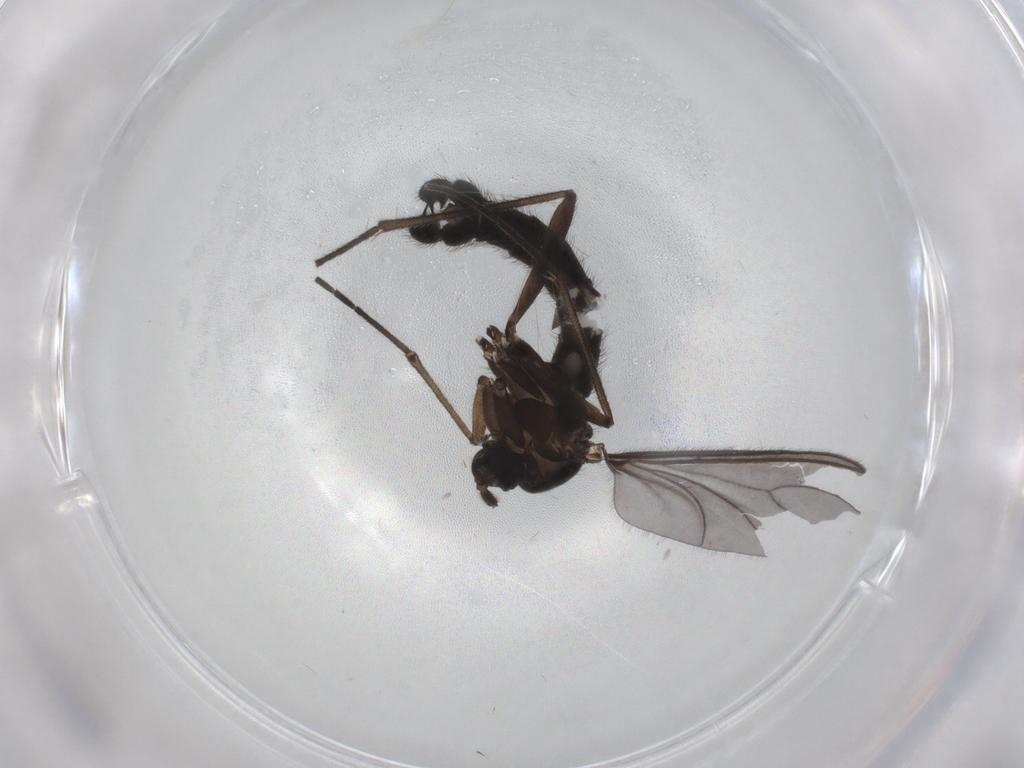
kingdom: Animalia
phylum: Arthropoda
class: Insecta
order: Diptera
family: Sciaridae
